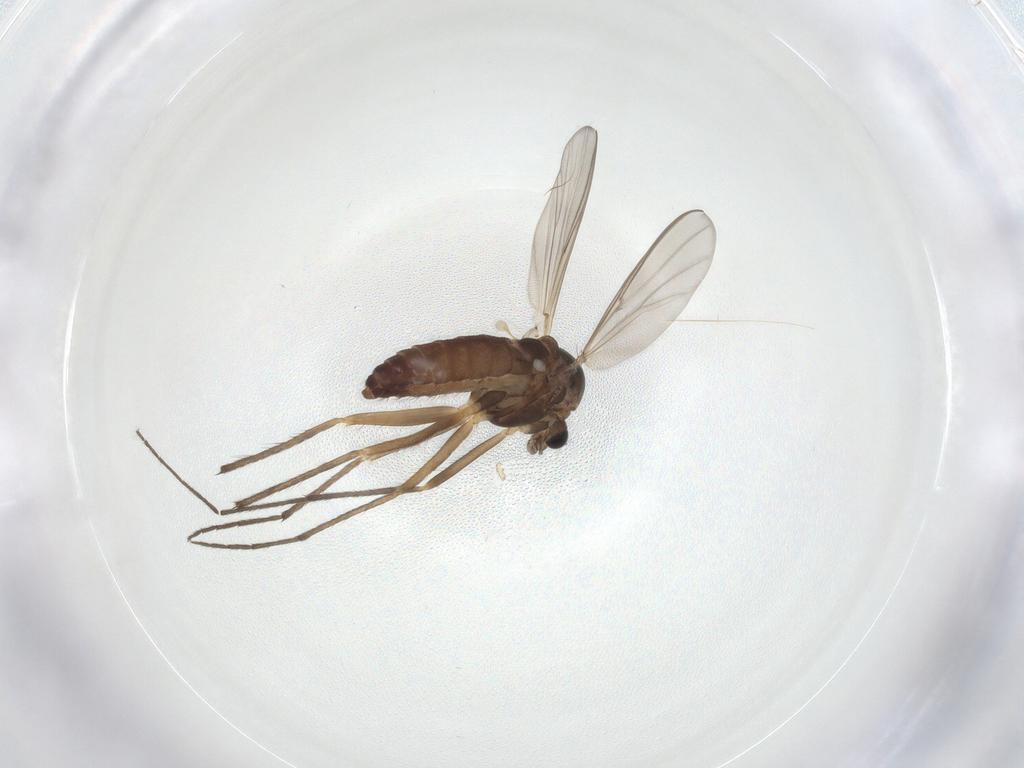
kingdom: Animalia
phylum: Arthropoda
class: Insecta
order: Diptera
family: Chironomidae
